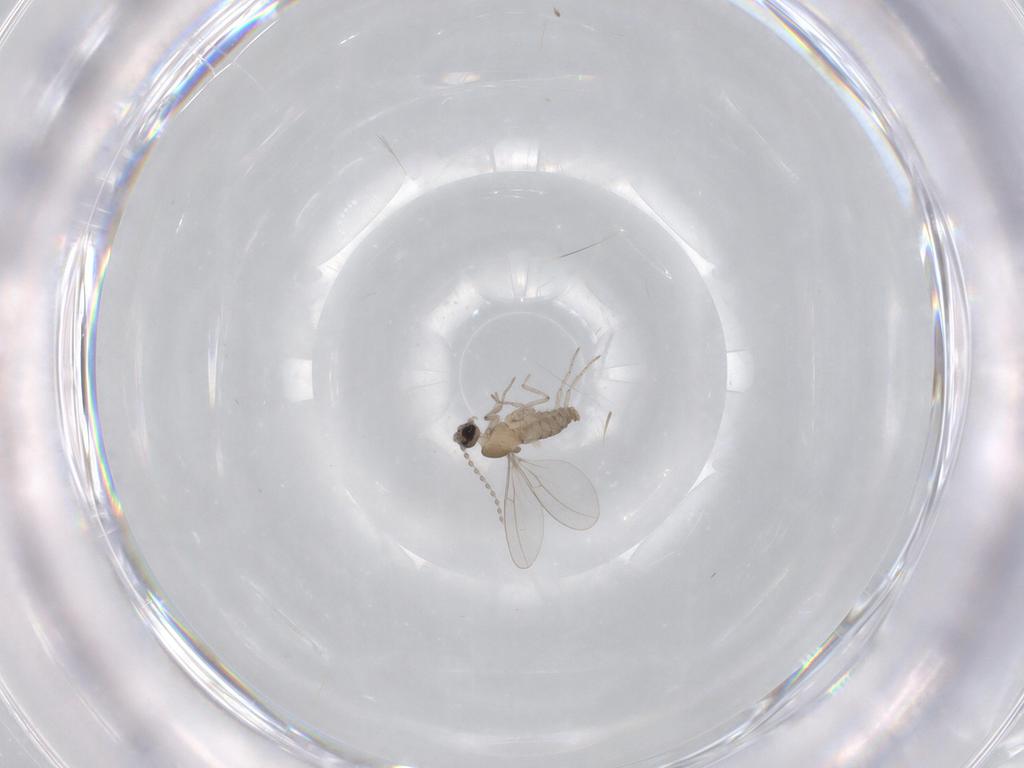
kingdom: Animalia
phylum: Arthropoda
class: Insecta
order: Diptera
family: Cecidomyiidae
